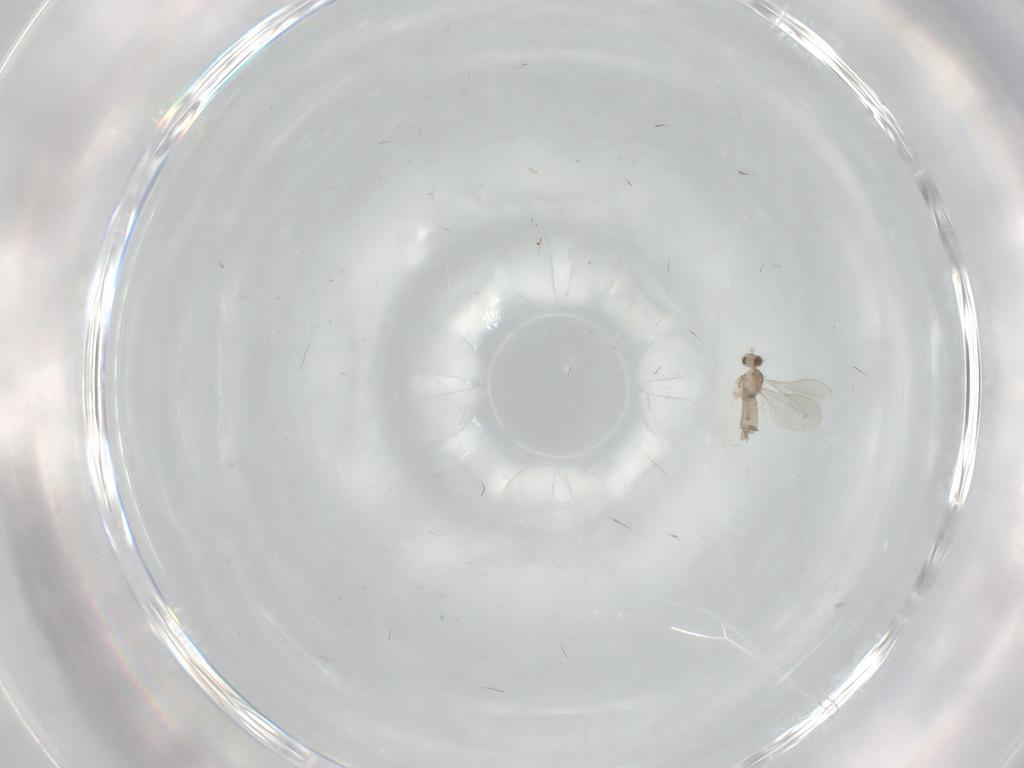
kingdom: Animalia
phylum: Arthropoda
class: Insecta
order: Diptera
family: Cecidomyiidae
